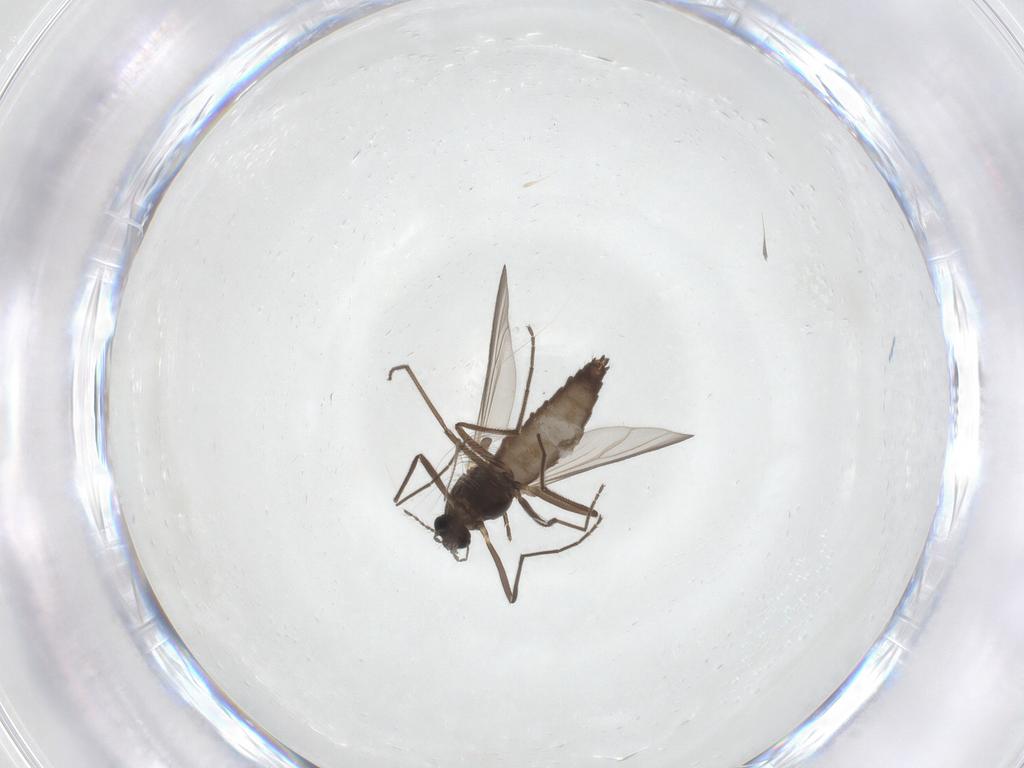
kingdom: Animalia
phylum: Arthropoda
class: Insecta
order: Diptera
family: Chironomidae
